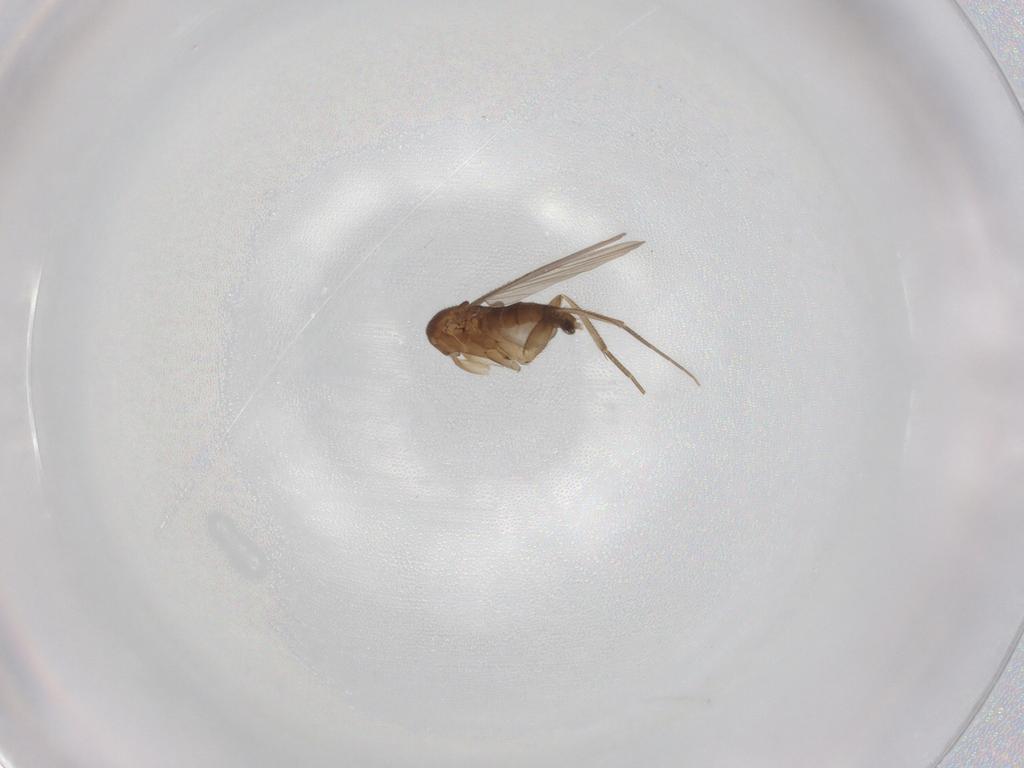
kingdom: Animalia
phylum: Arthropoda
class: Insecta
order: Diptera
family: Phoridae
